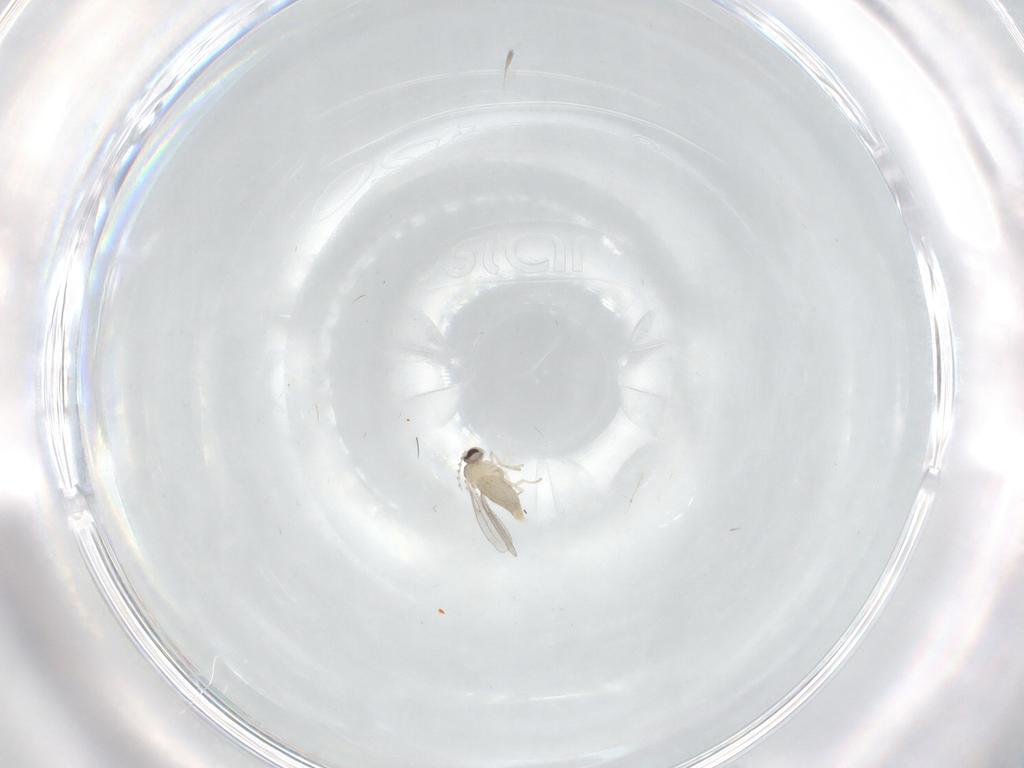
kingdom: Animalia
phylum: Arthropoda
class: Insecta
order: Diptera
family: Cecidomyiidae
